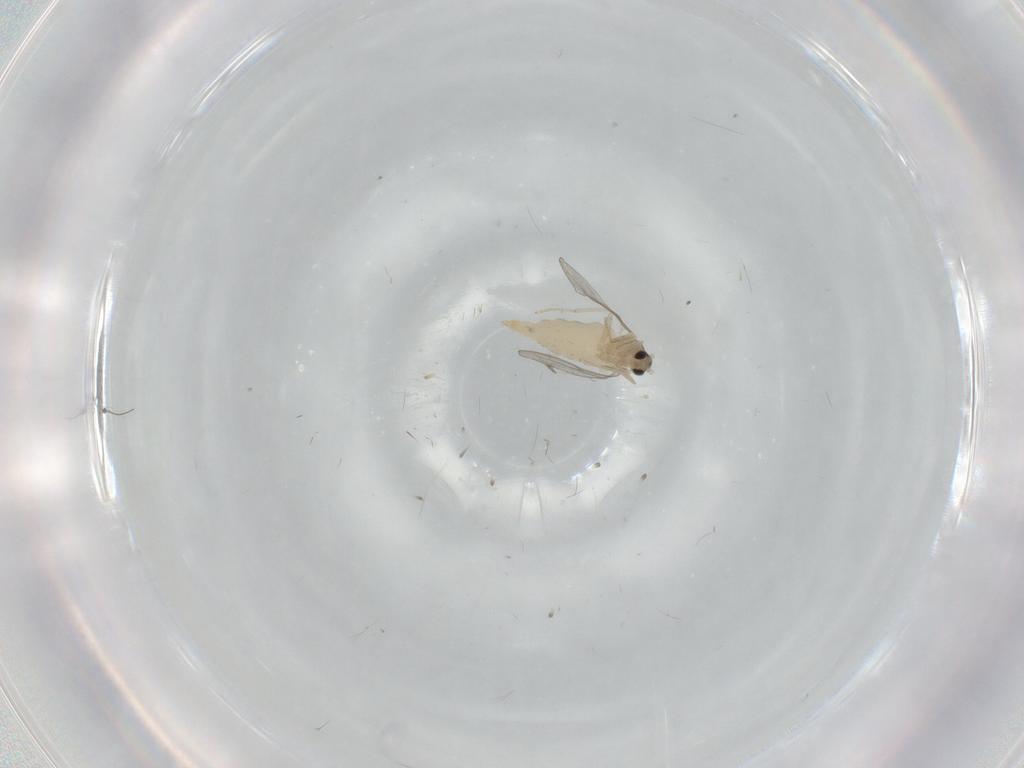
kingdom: Animalia
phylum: Arthropoda
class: Insecta
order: Diptera
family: Cecidomyiidae
